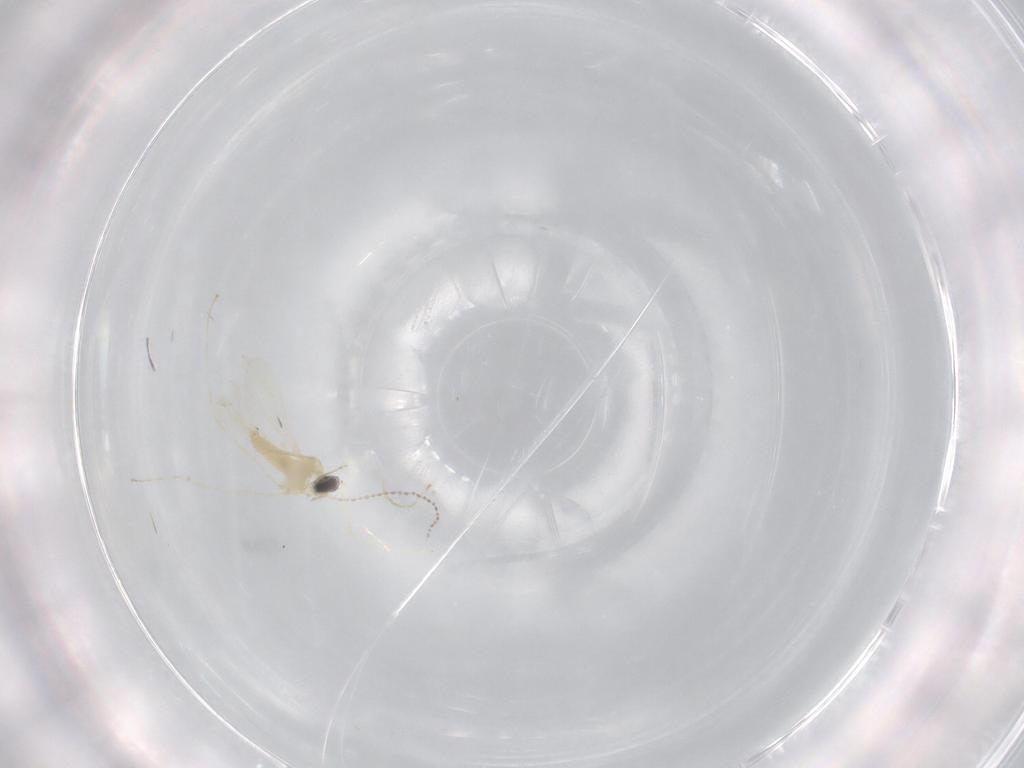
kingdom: Animalia
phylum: Arthropoda
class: Insecta
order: Diptera
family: Cecidomyiidae
